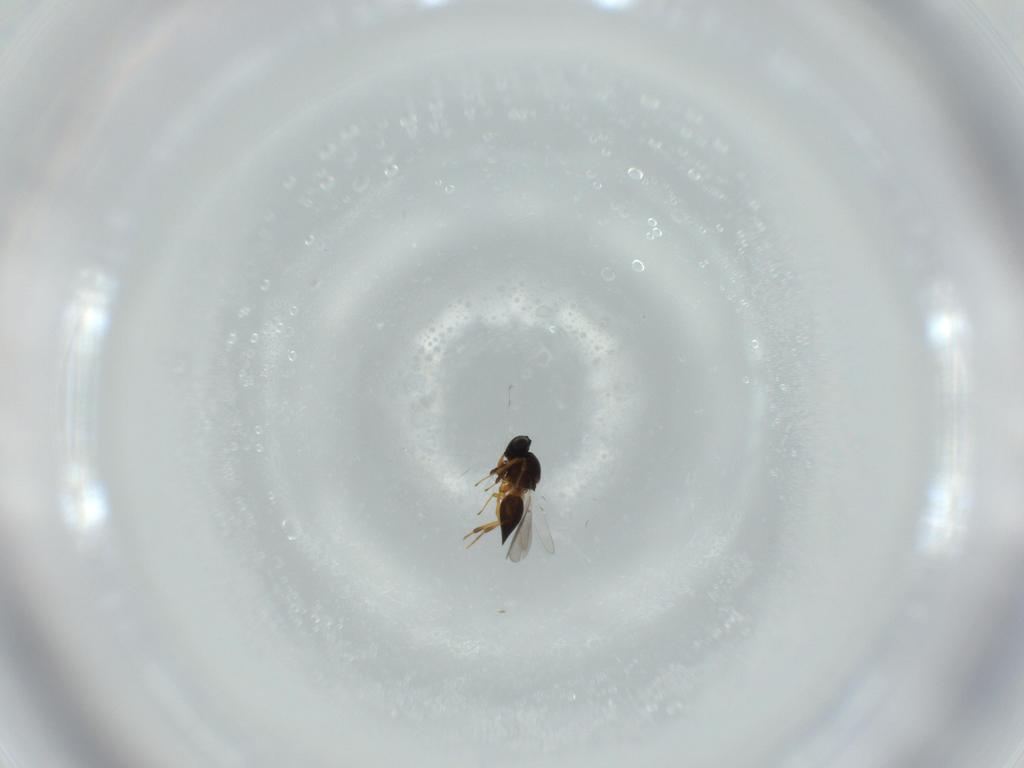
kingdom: Animalia
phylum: Arthropoda
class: Insecta
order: Hymenoptera
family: Platygastridae
